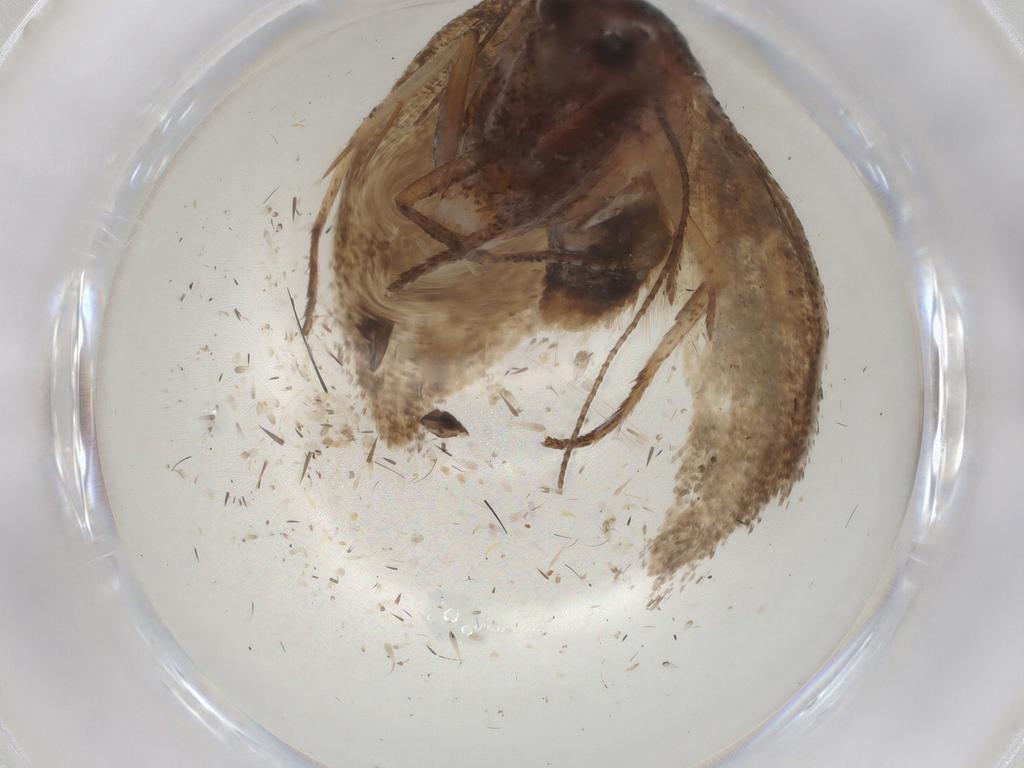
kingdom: Animalia
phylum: Arthropoda
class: Insecta
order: Lepidoptera
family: Cosmopterigidae
